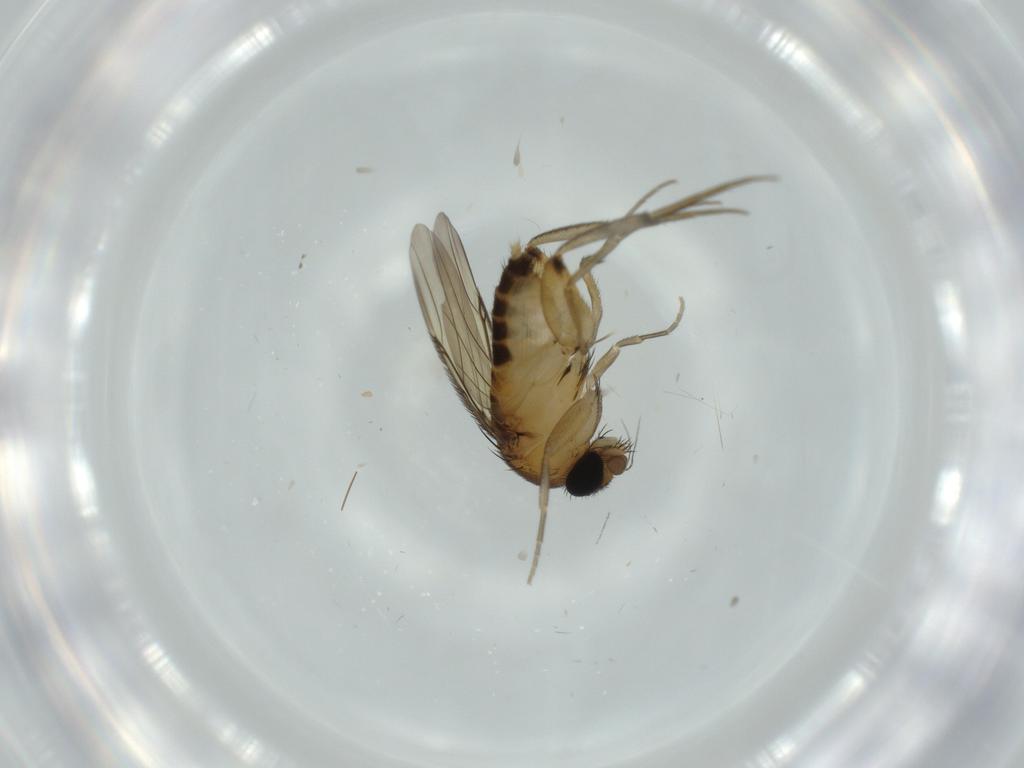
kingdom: Animalia
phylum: Arthropoda
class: Insecta
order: Diptera
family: Phoridae
